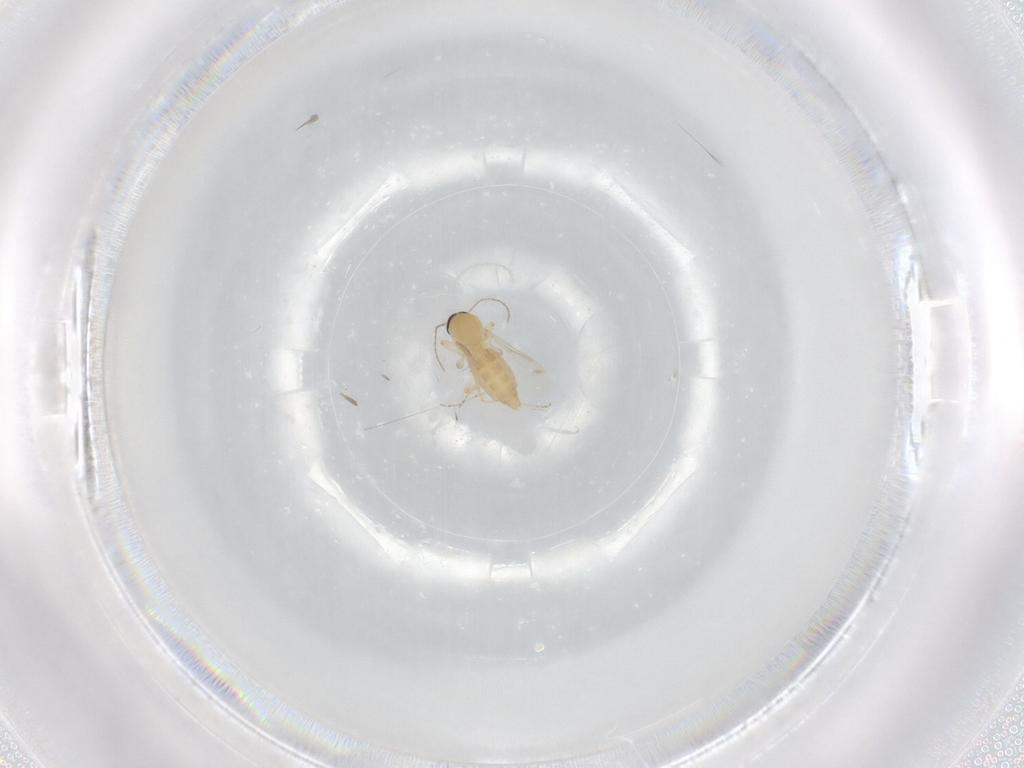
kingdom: Animalia
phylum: Arthropoda
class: Insecta
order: Diptera
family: Ceratopogonidae
